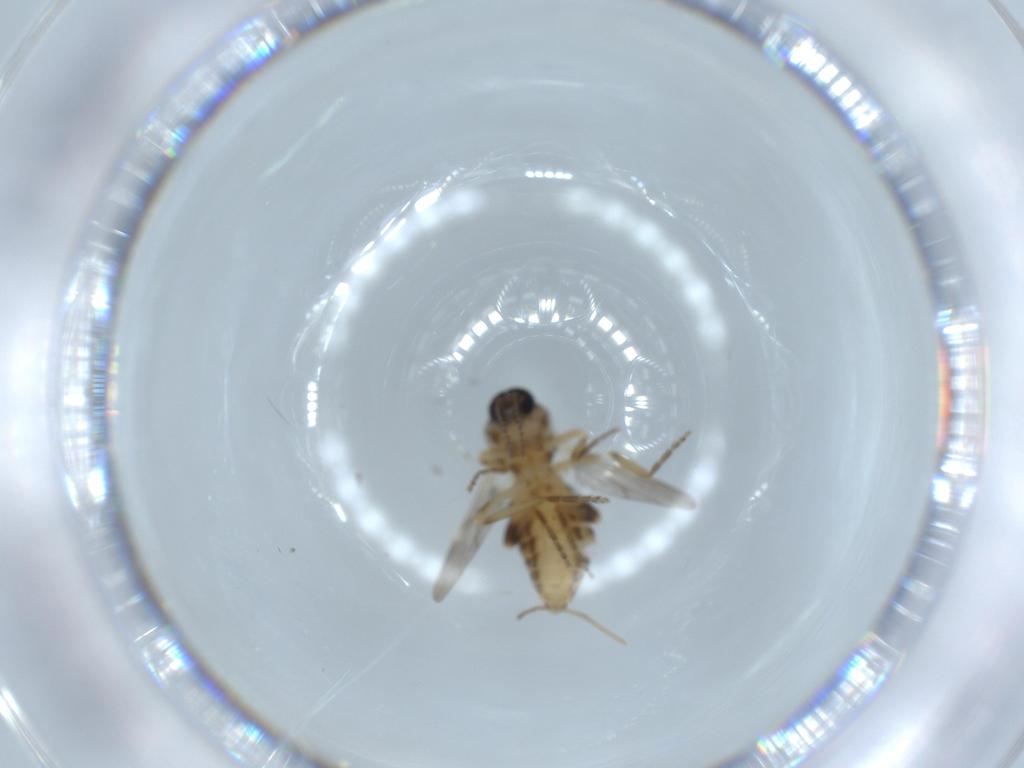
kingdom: Animalia
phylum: Arthropoda
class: Insecta
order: Diptera
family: Ceratopogonidae
